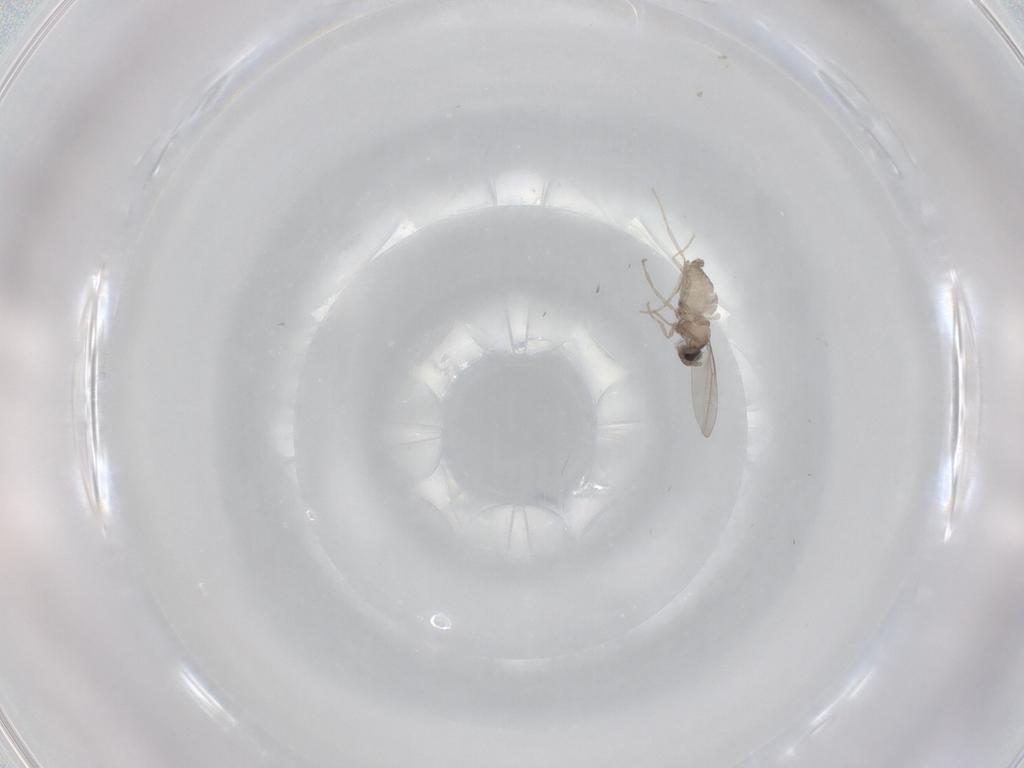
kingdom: Animalia
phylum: Arthropoda
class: Insecta
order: Diptera
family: Cecidomyiidae
